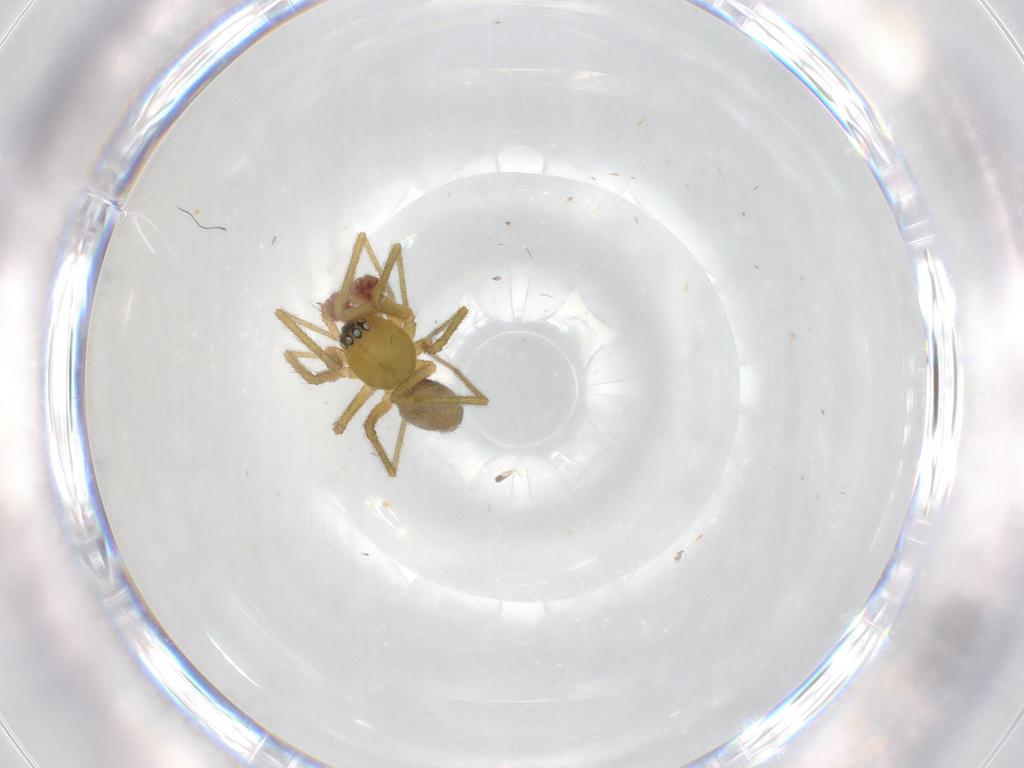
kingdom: Animalia
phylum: Arthropoda
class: Arachnida
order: Araneae
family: Linyphiidae
